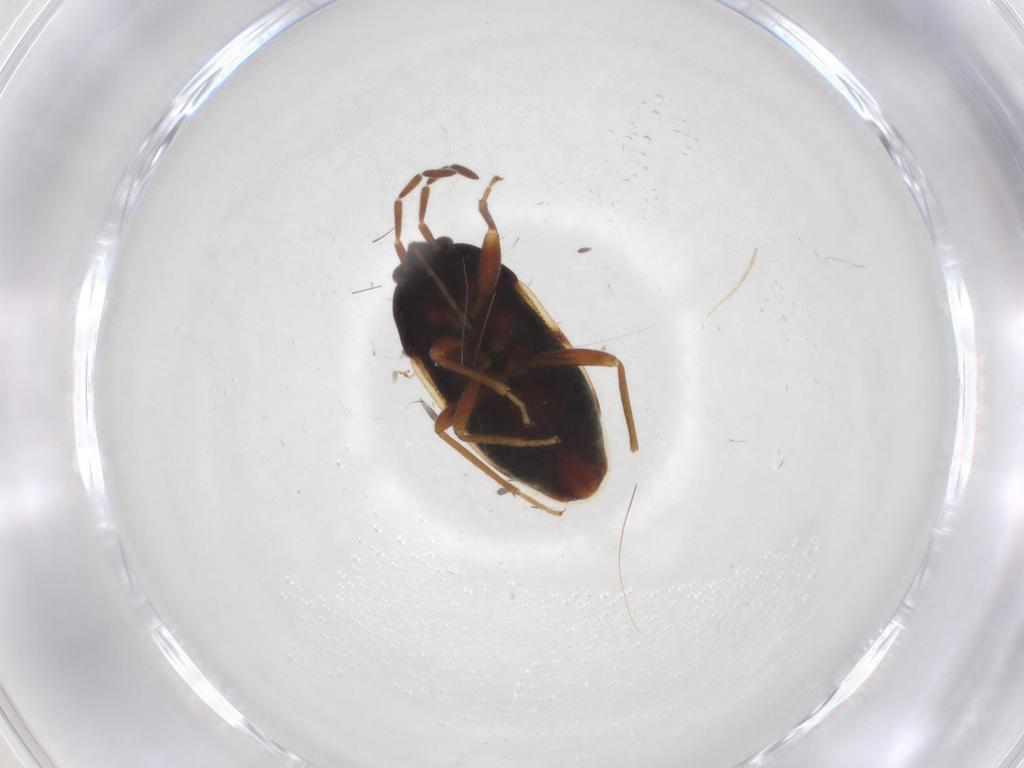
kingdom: Animalia
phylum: Arthropoda
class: Insecta
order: Hemiptera
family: Rhyparochromidae
